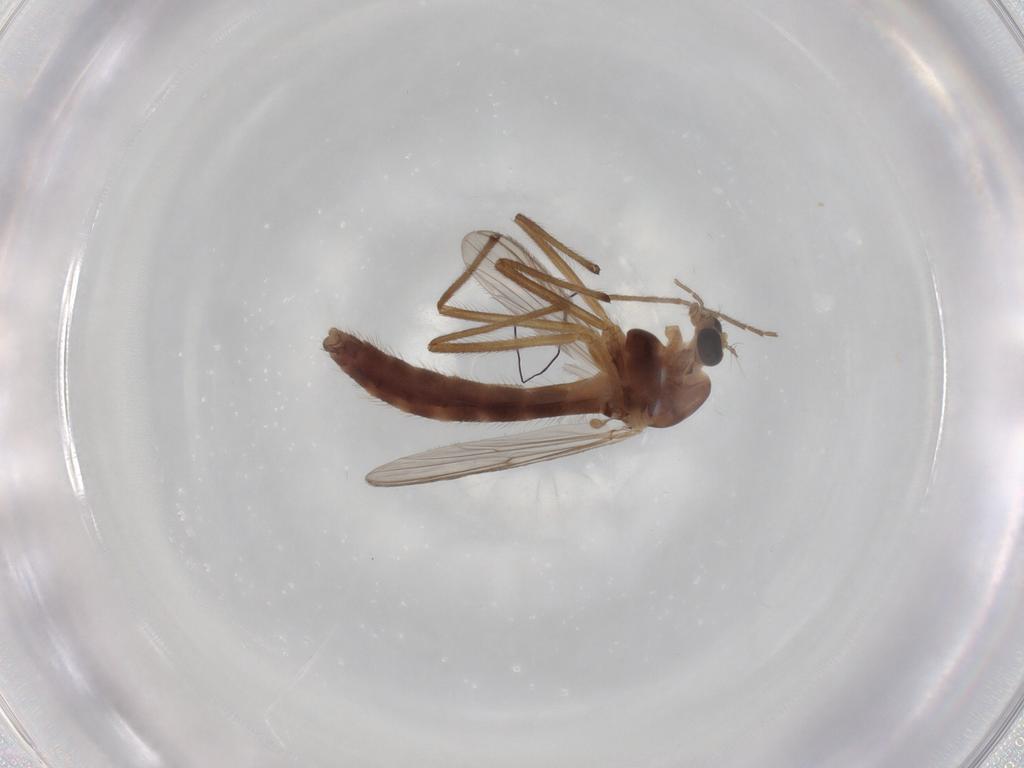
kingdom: Animalia
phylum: Arthropoda
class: Insecta
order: Diptera
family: Chironomidae
